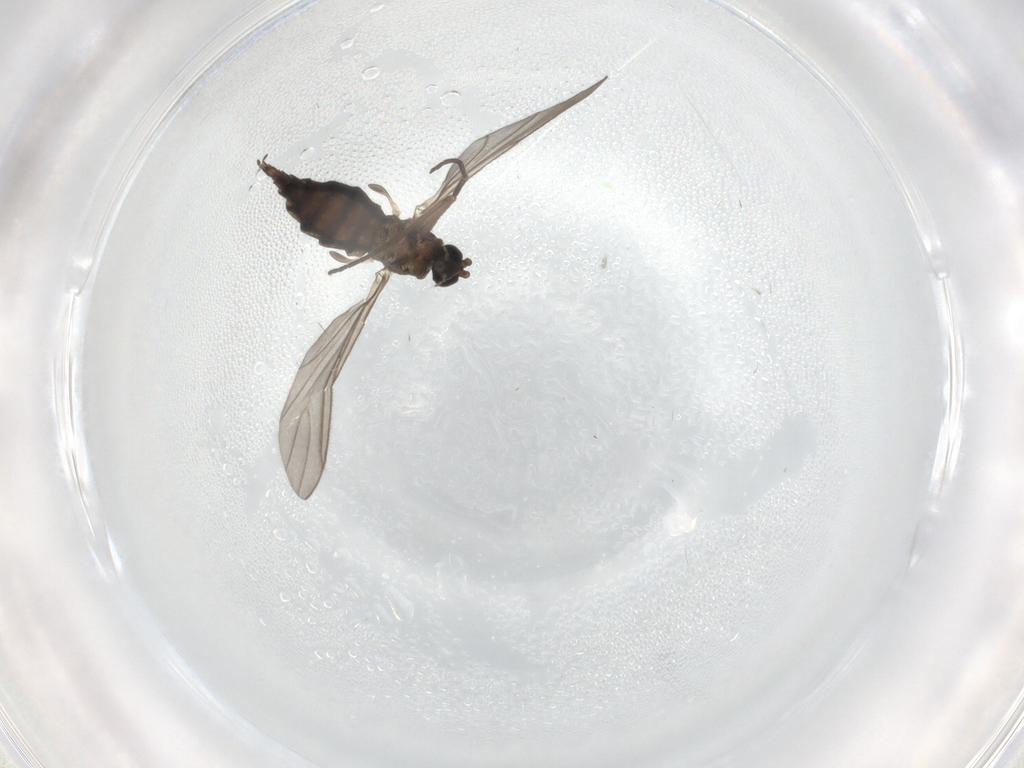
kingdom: Animalia
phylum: Arthropoda
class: Insecta
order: Diptera
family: Sciaridae
